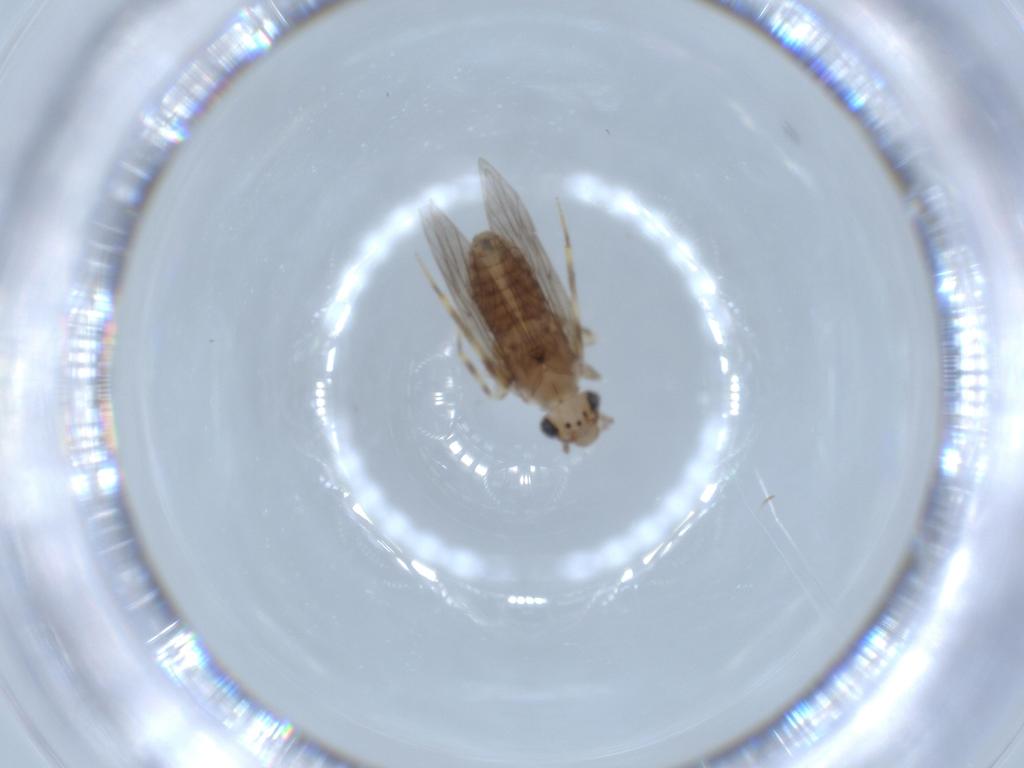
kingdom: Animalia
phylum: Arthropoda
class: Insecta
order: Psocodea
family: Lepidopsocidae
